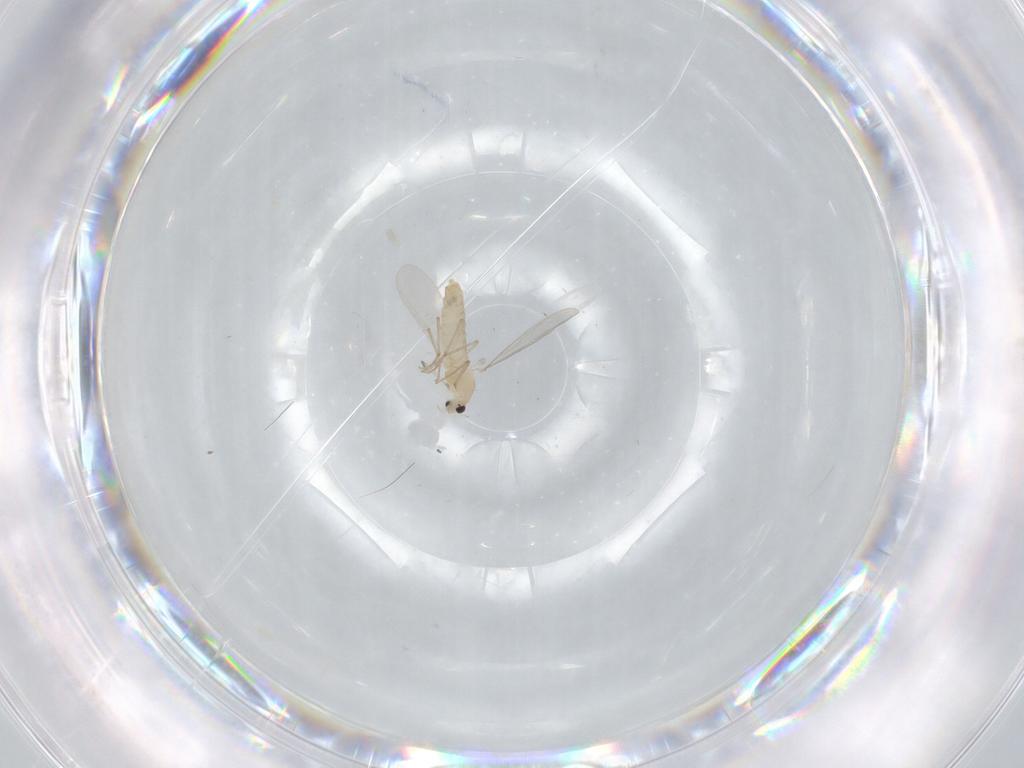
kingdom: Animalia
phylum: Arthropoda
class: Insecta
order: Diptera
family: Chironomidae
